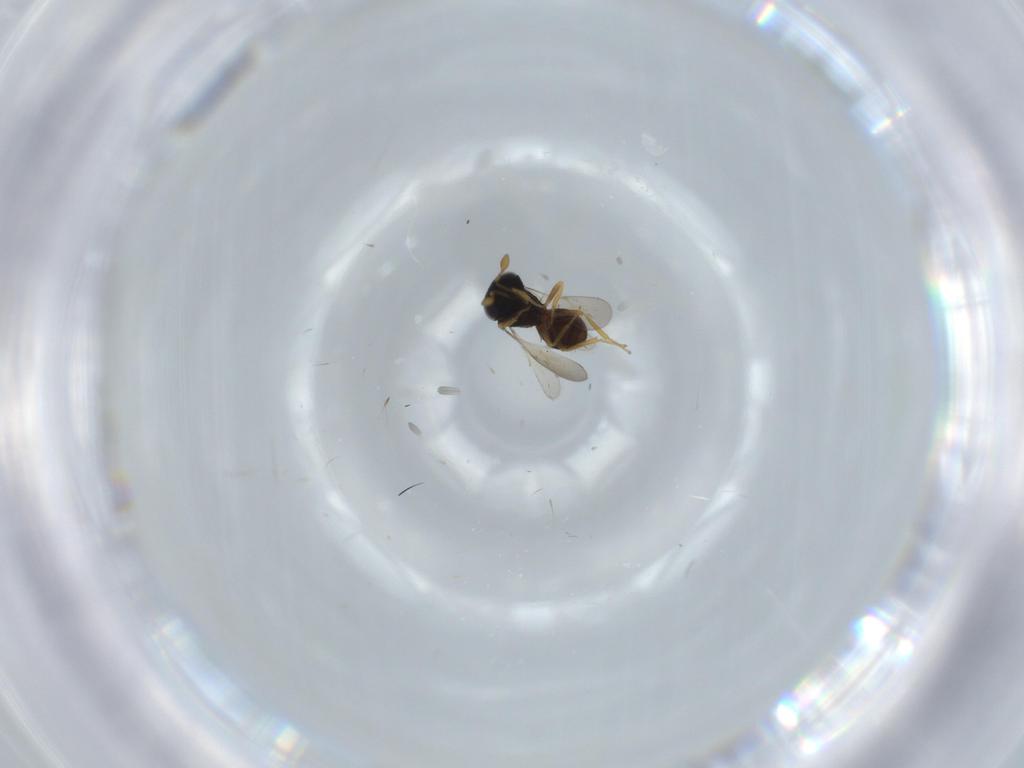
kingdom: Animalia
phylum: Arthropoda
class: Insecta
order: Hymenoptera
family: Scelionidae
